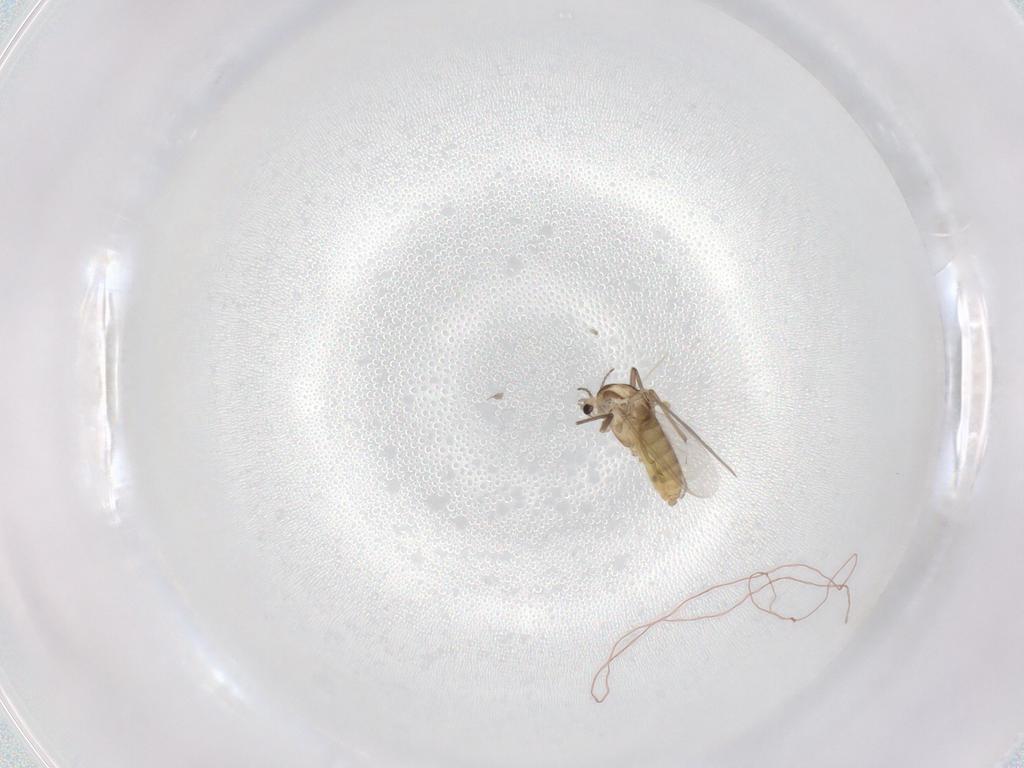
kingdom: Animalia
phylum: Arthropoda
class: Insecta
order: Diptera
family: Chironomidae
